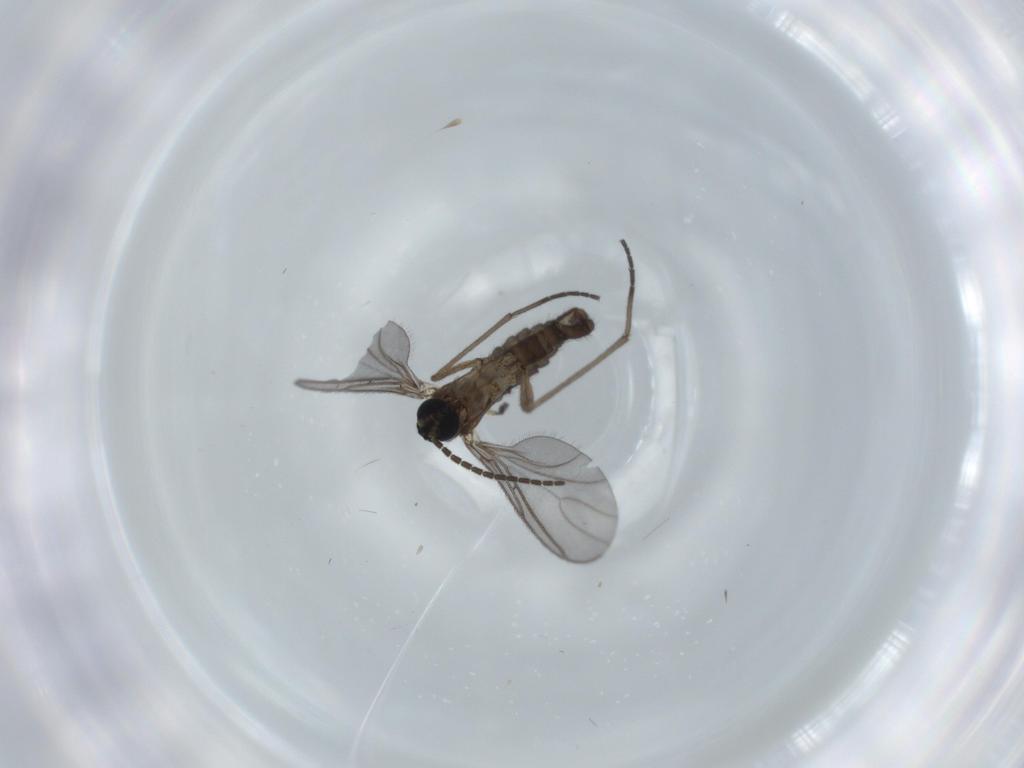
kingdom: Animalia
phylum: Arthropoda
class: Insecta
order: Diptera
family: Sciaridae
